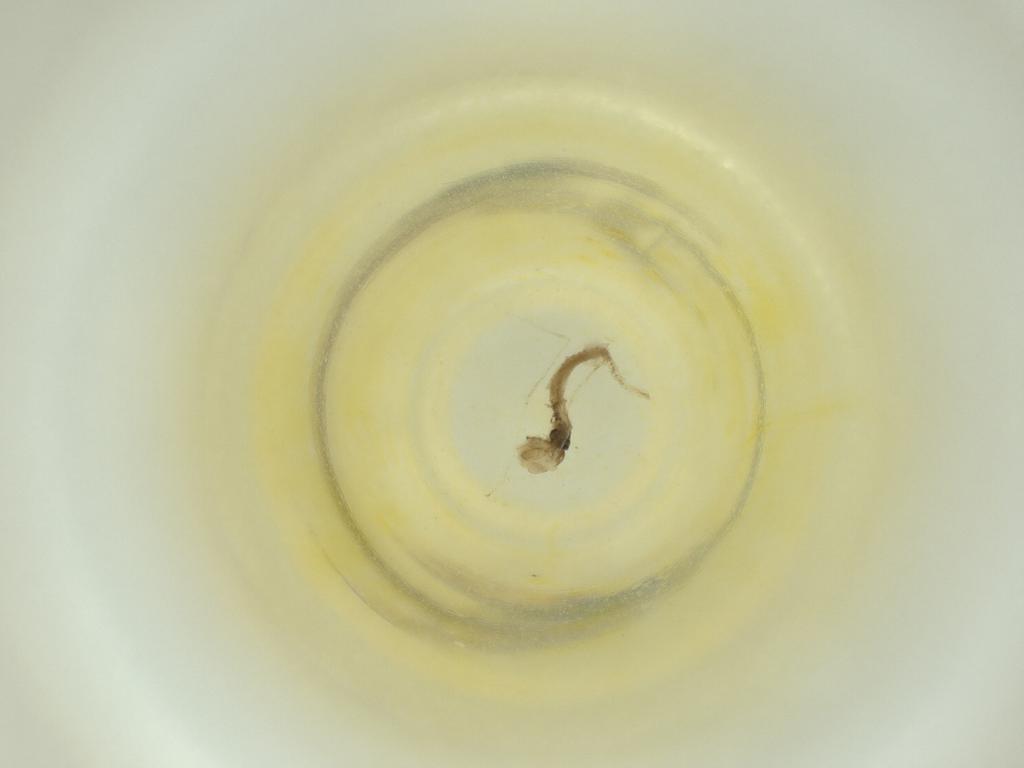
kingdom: Animalia
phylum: Arthropoda
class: Insecta
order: Diptera
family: Cecidomyiidae
